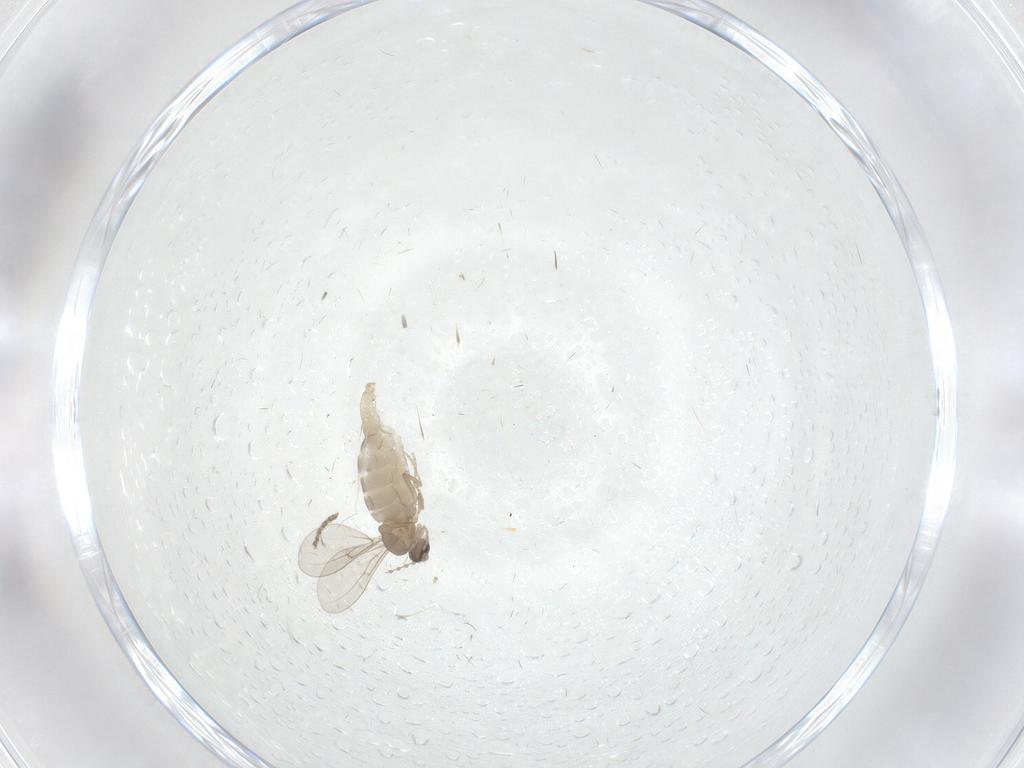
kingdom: Animalia
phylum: Arthropoda
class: Insecta
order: Diptera
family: Cecidomyiidae
